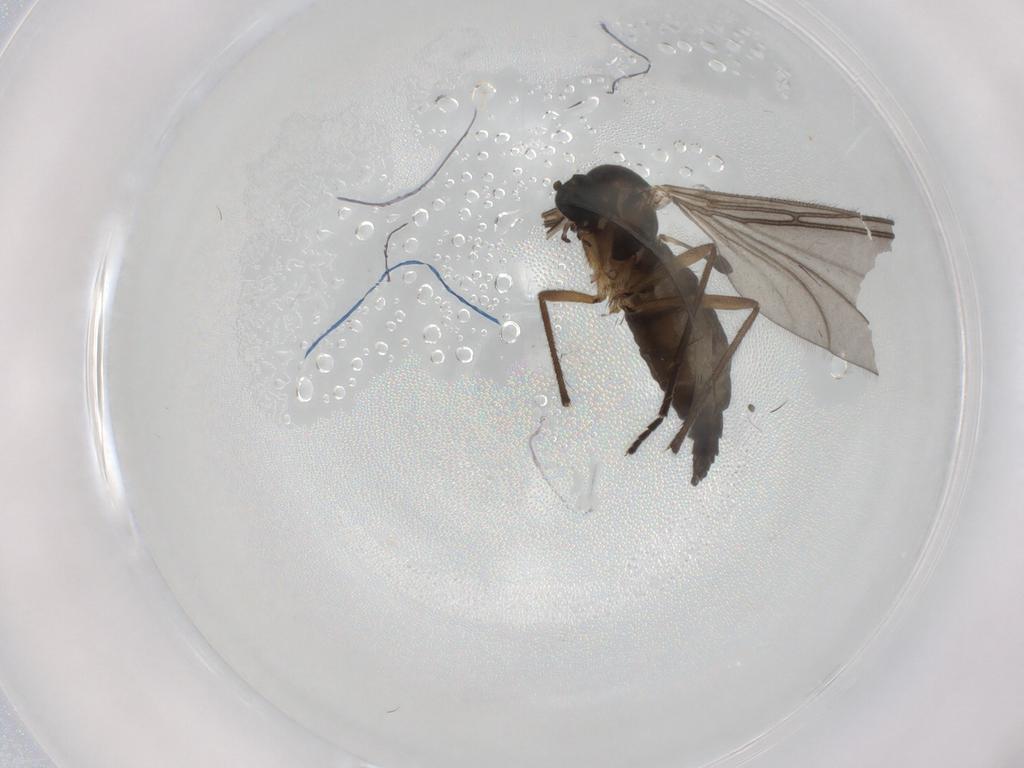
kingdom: Animalia
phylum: Arthropoda
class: Insecta
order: Diptera
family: Sciaridae
